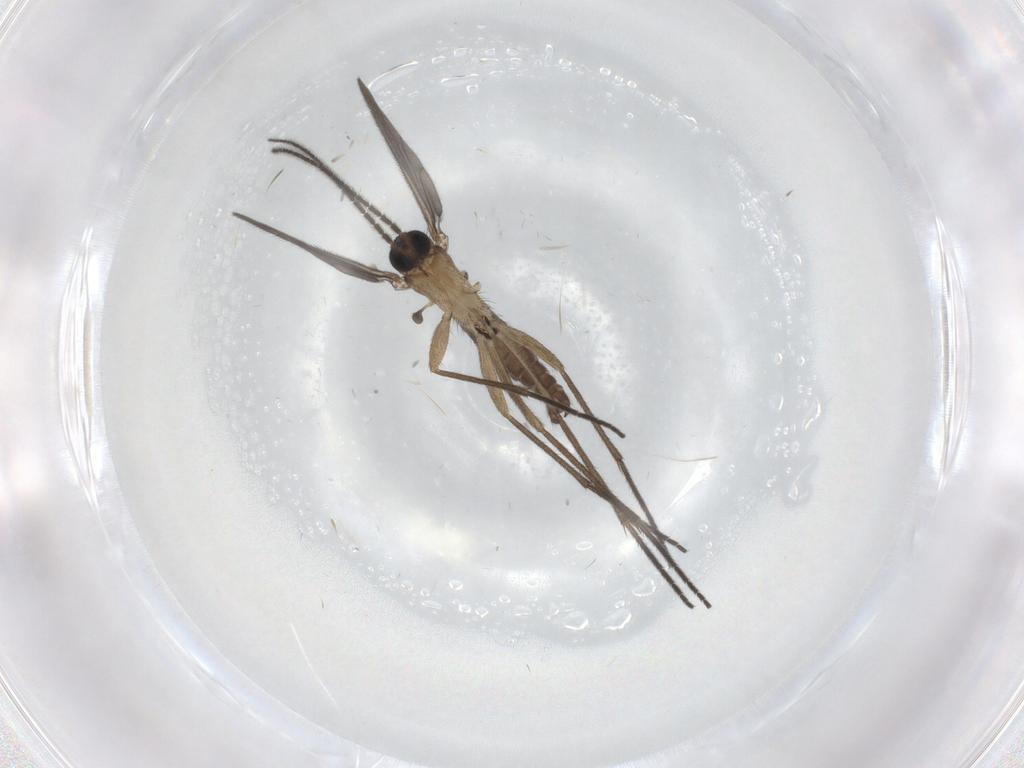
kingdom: Animalia
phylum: Arthropoda
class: Insecta
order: Diptera
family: Sciaridae
